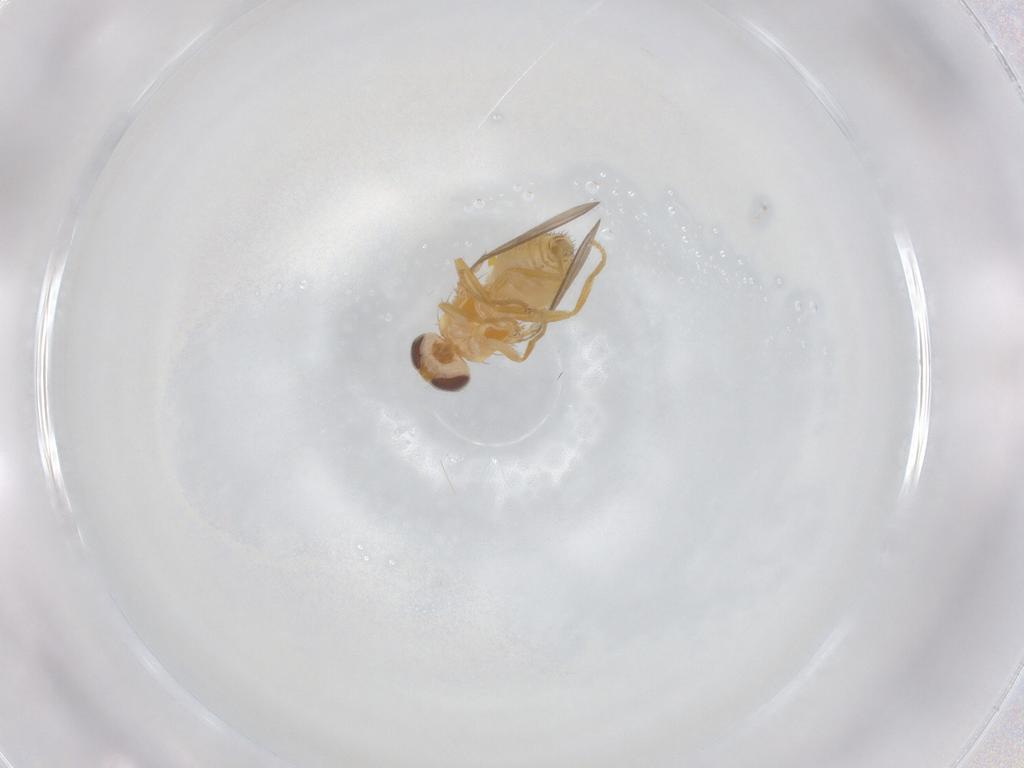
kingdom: Animalia
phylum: Arthropoda
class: Insecta
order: Diptera
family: Chyromyidae
